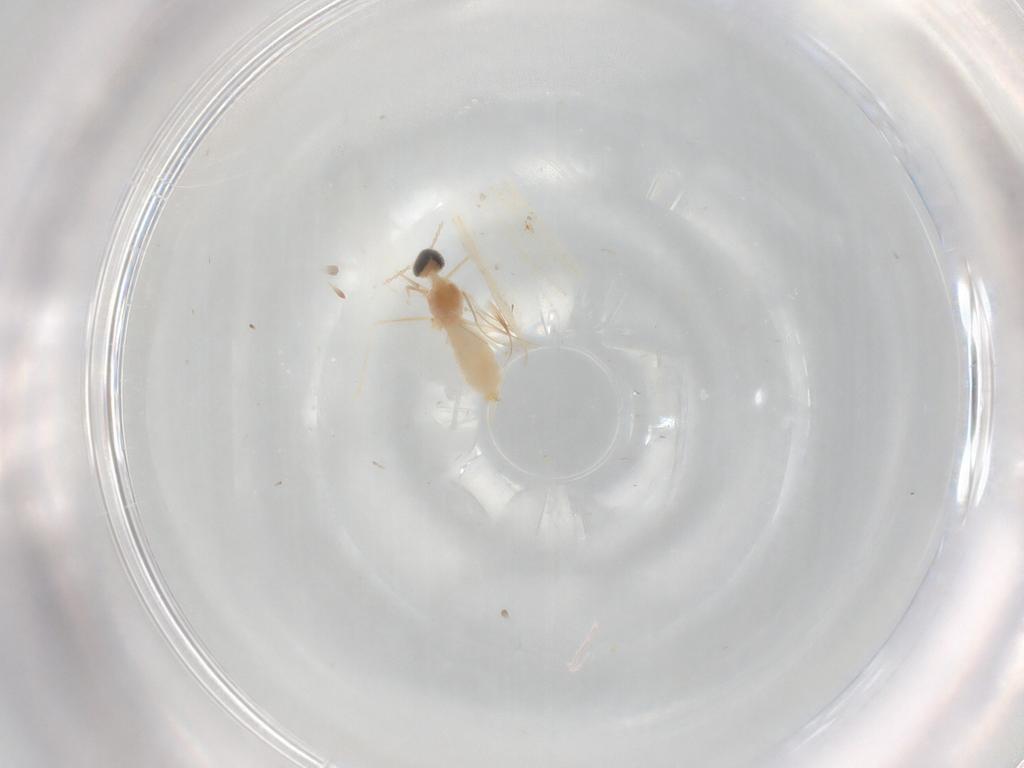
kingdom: Animalia
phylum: Arthropoda
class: Insecta
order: Diptera
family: Cecidomyiidae
